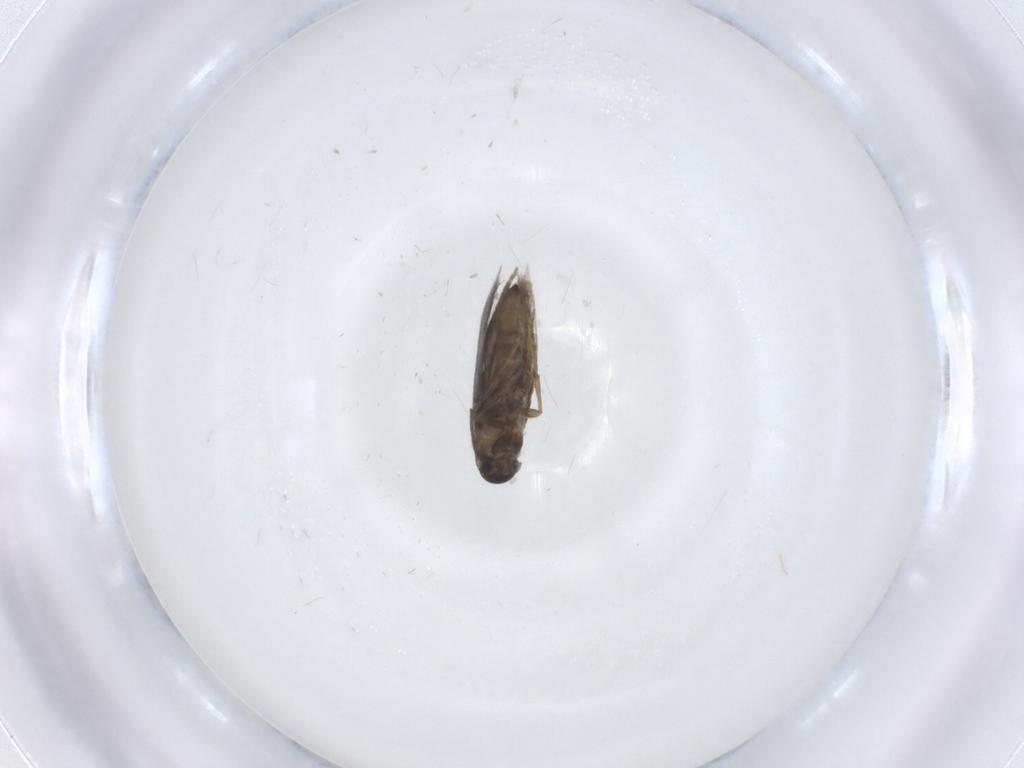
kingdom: Animalia
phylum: Arthropoda
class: Insecta
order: Lepidoptera
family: Heliozelidae
